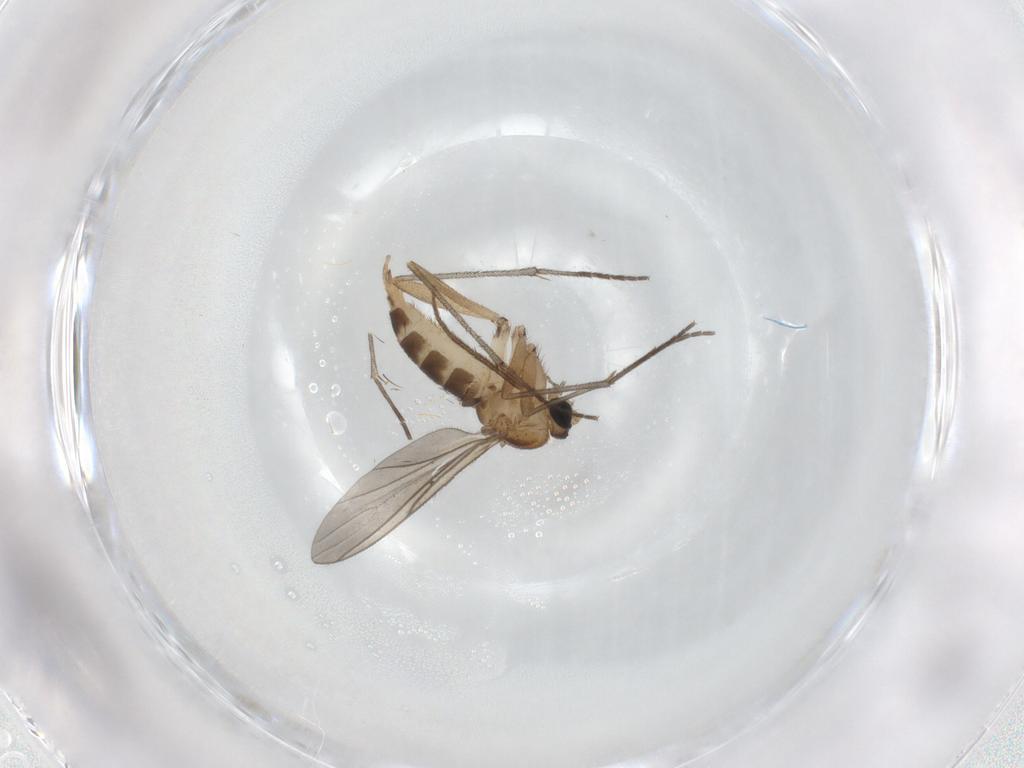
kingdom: Animalia
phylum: Arthropoda
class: Insecta
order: Diptera
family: Sciaridae
